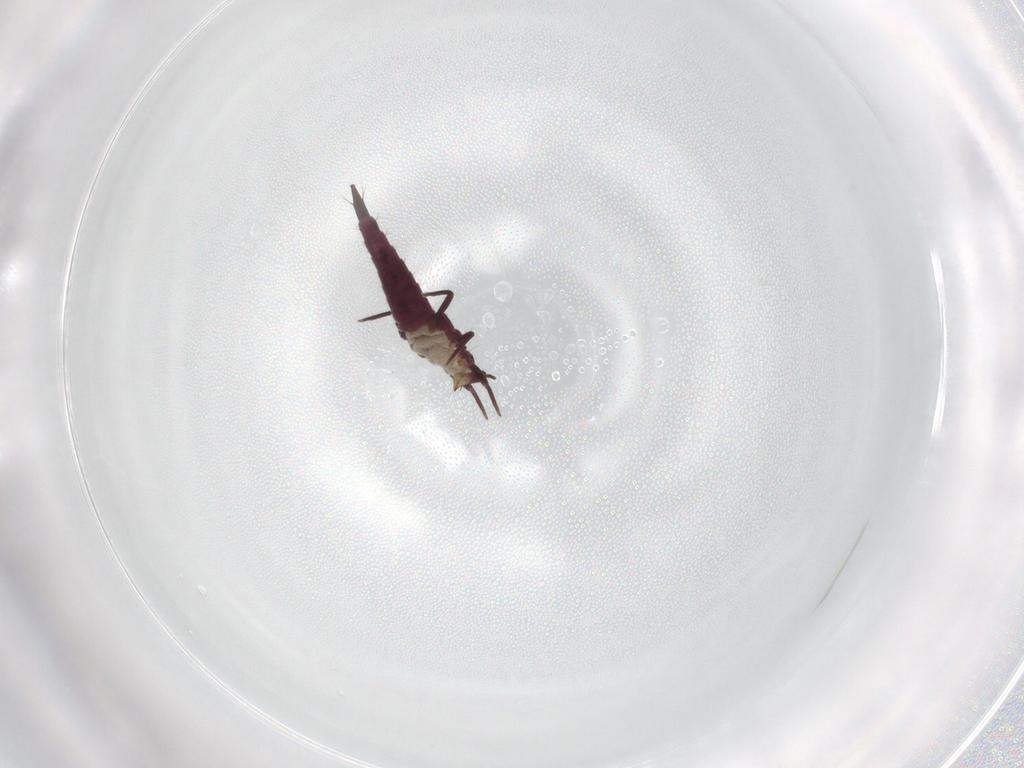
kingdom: Animalia
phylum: Arthropoda
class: Insecta
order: Thysanoptera
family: Phlaeothripidae
